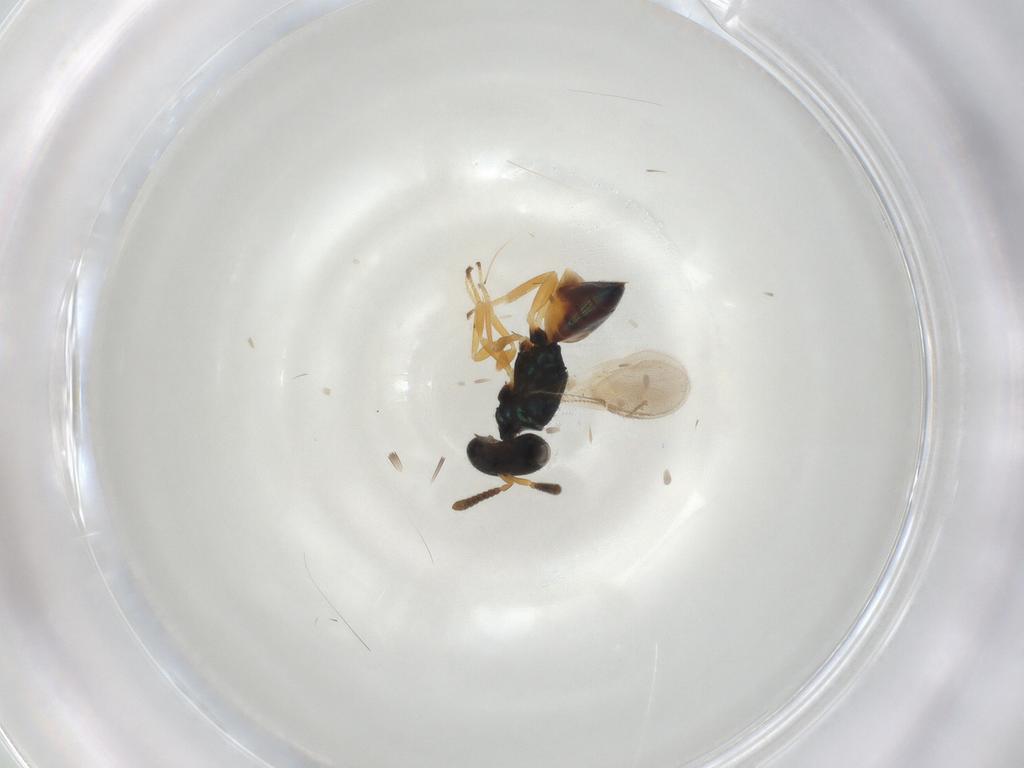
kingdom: Animalia
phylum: Arthropoda
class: Insecta
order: Hymenoptera
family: Pteromalidae
